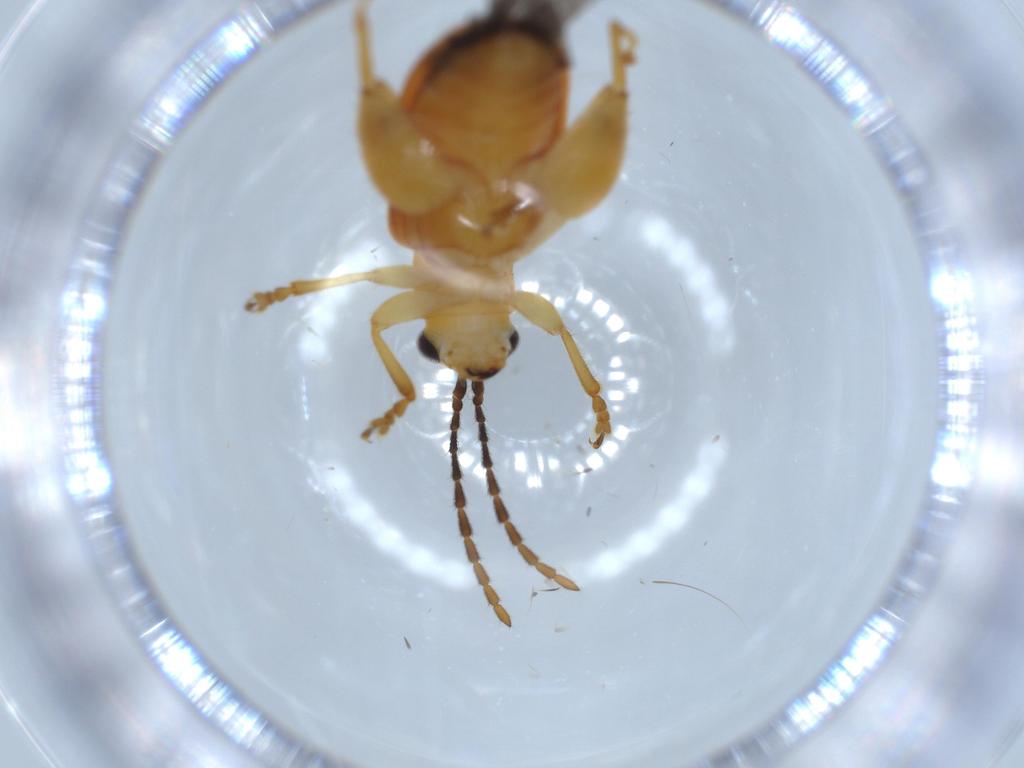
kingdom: Animalia
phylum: Arthropoda
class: Insecta
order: Coleoptera
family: Chrysomelidae
